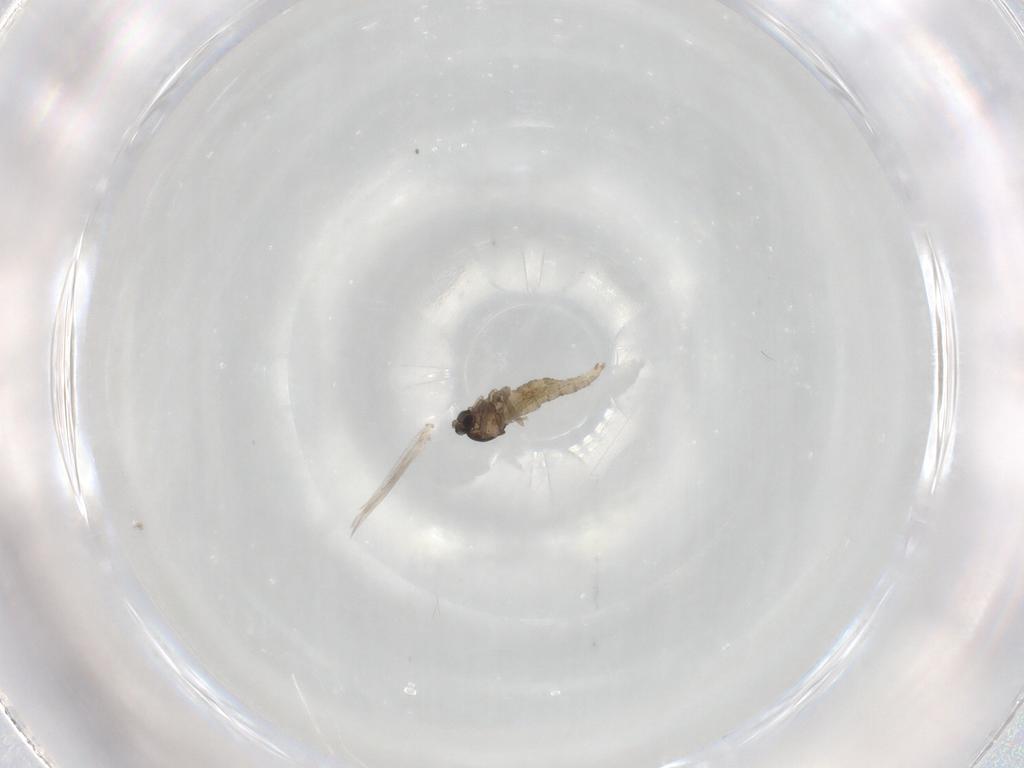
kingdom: Animalia
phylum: Arthropoda
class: Insecta
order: Diptera
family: Cecidomyiidae
